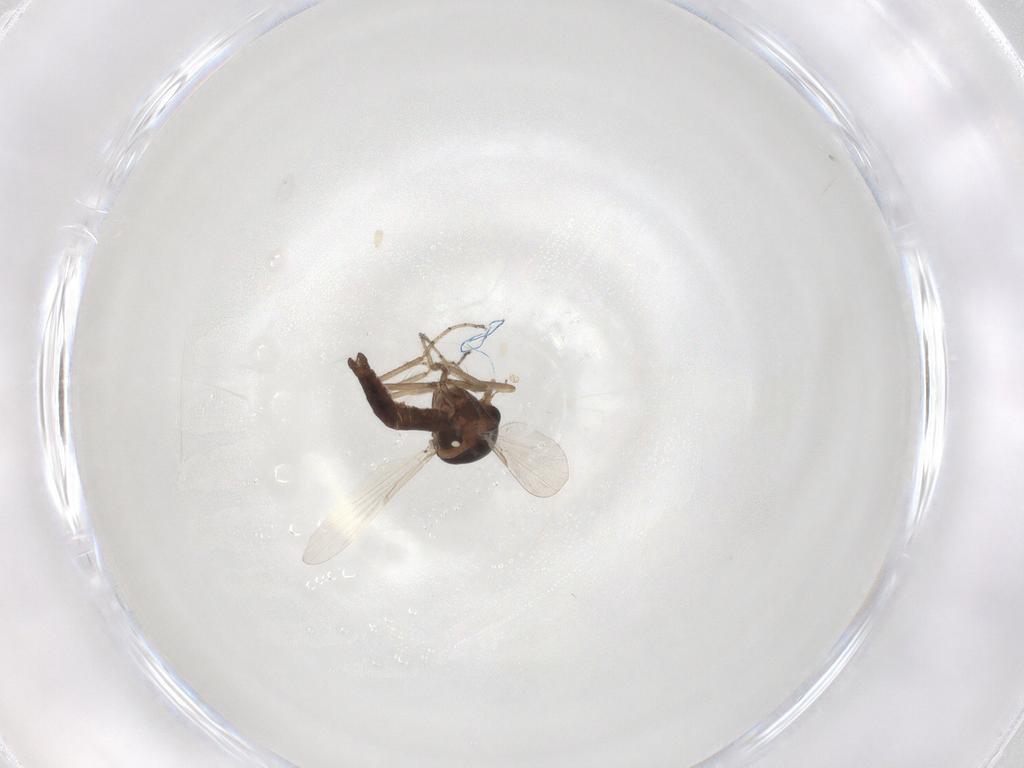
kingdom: Animalia
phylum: Arthropoda
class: Insecta
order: Diptera
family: Ceratopogonidae
